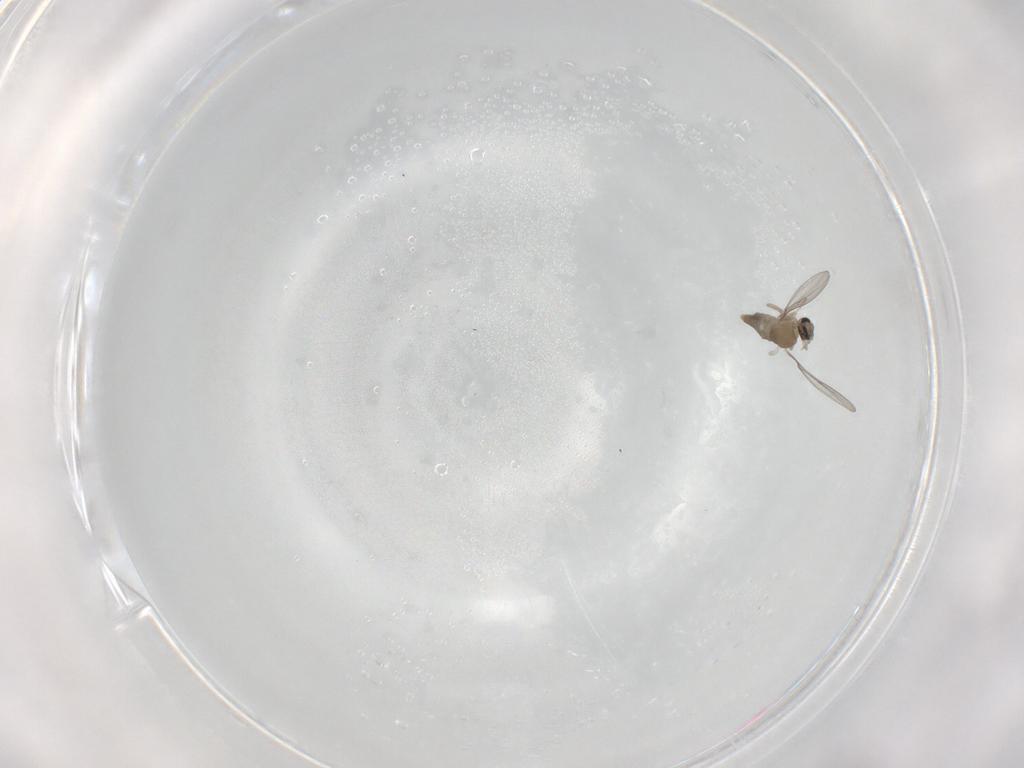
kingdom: Animalia
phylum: Arthropoda
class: Insecta
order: Diptera
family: Cecidomyiidae
